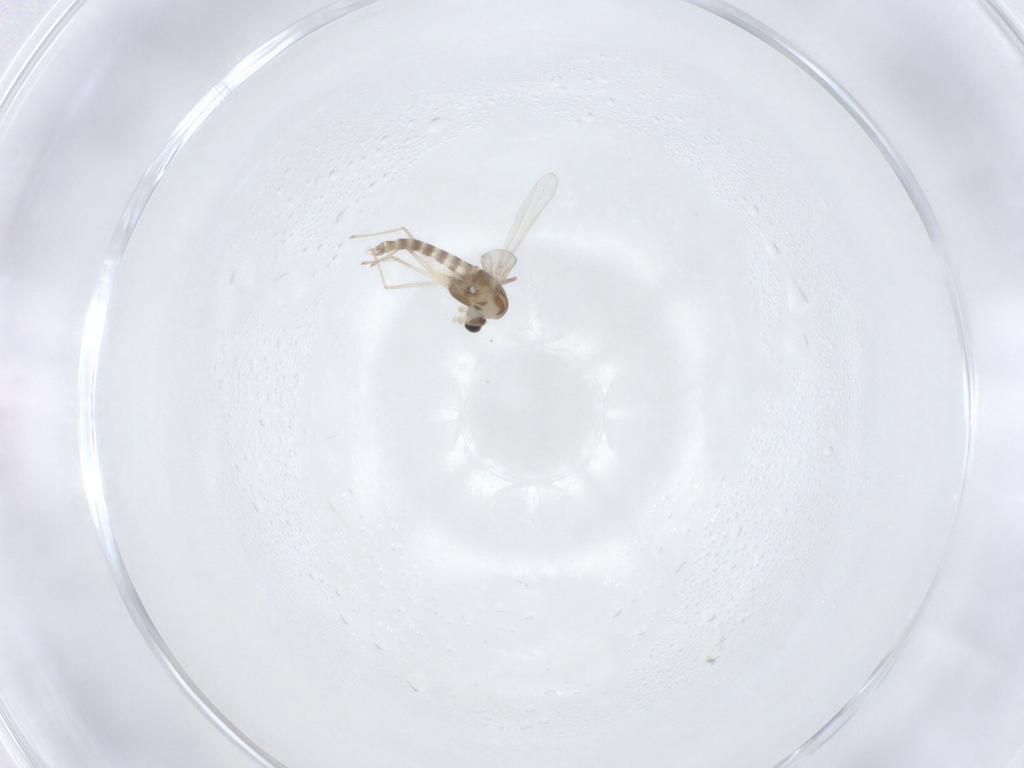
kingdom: Animalia
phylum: Arthropoda
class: Insecta
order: Diptera
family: Chironomidae
